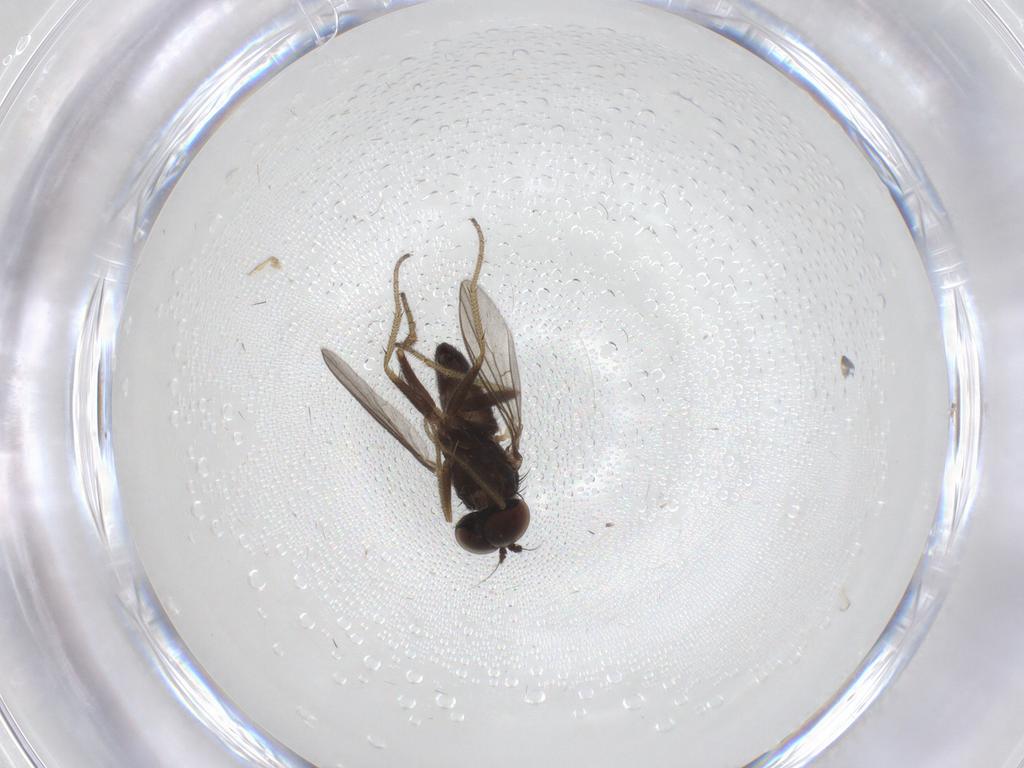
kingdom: Animalia
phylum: Arthropoda
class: Insecta
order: Diptera
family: Dolichopodidae
